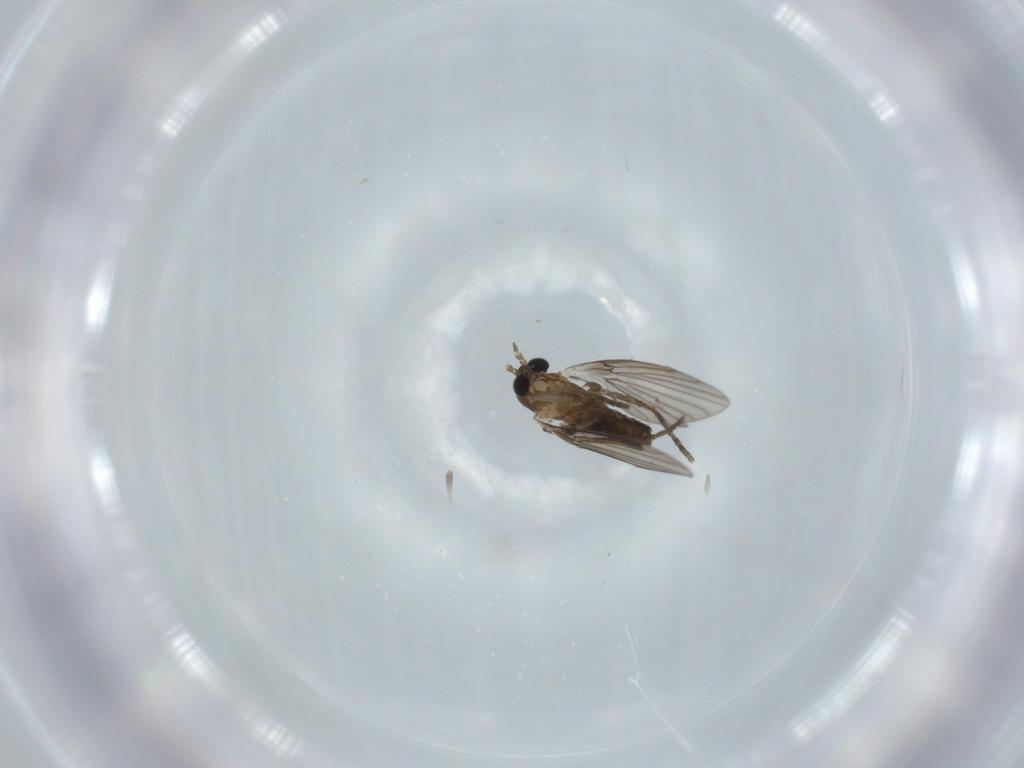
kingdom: Animalia
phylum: Arthropoda
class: Insecta
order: Diptera
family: Psychodidae
